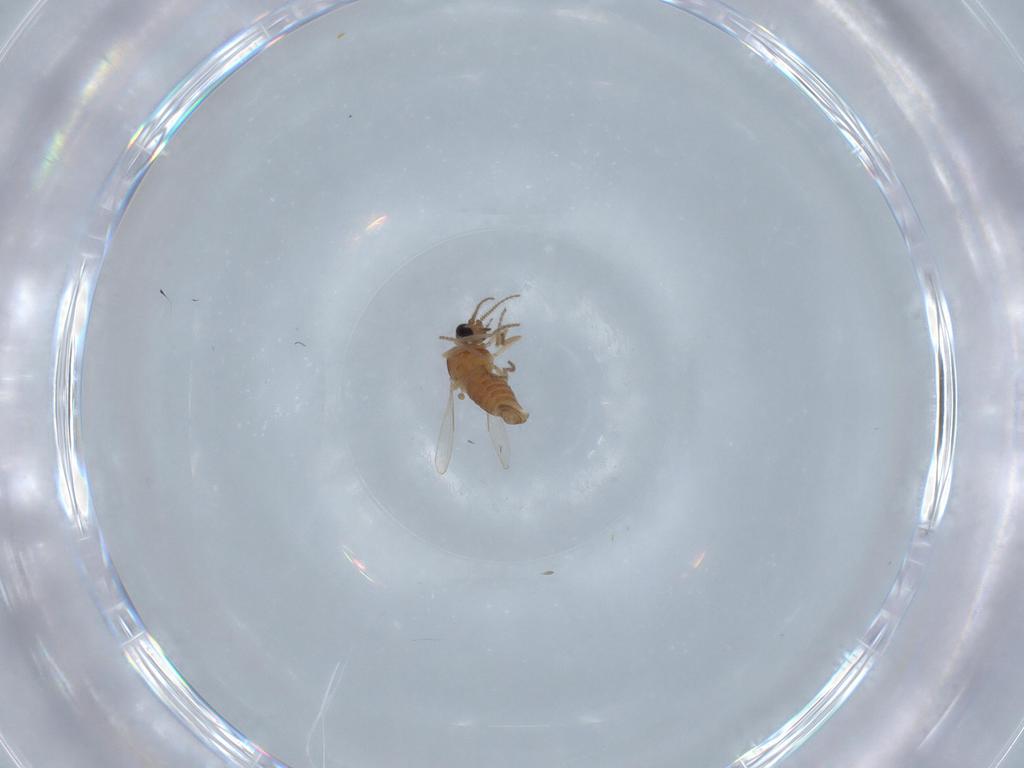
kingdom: Animalia
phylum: Arthropoda
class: Insecta
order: Diptera
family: Ceratopogonidae
